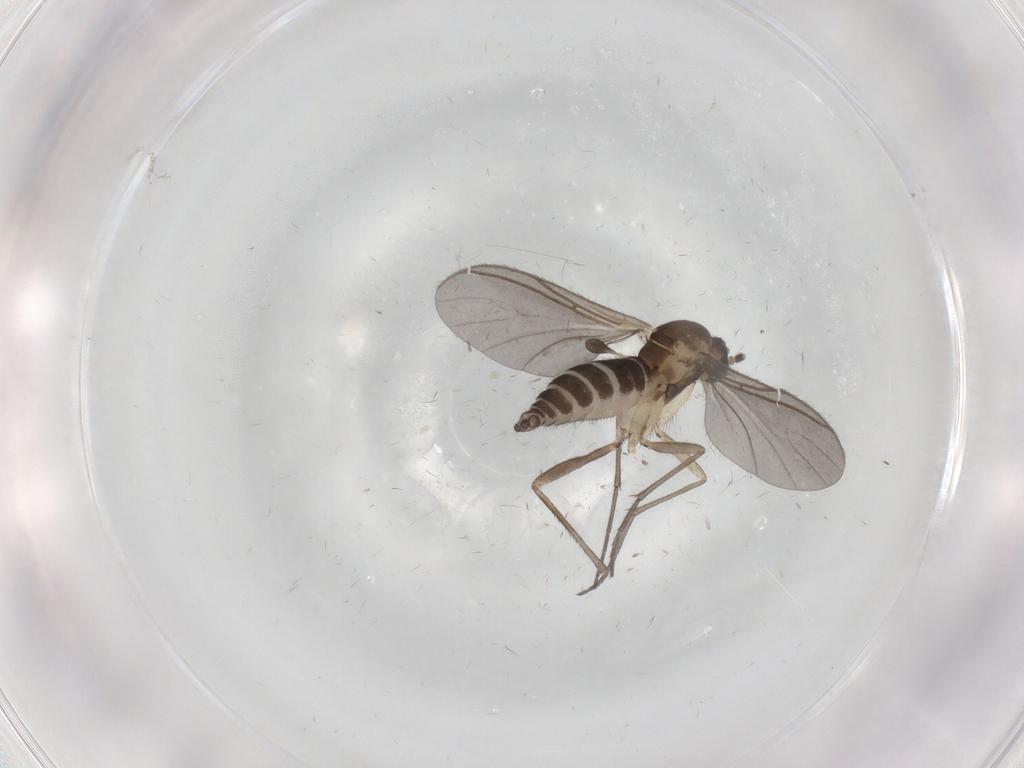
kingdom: Animalia
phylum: Arthropoda
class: Insecta
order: Diptera
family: Sciaridae
